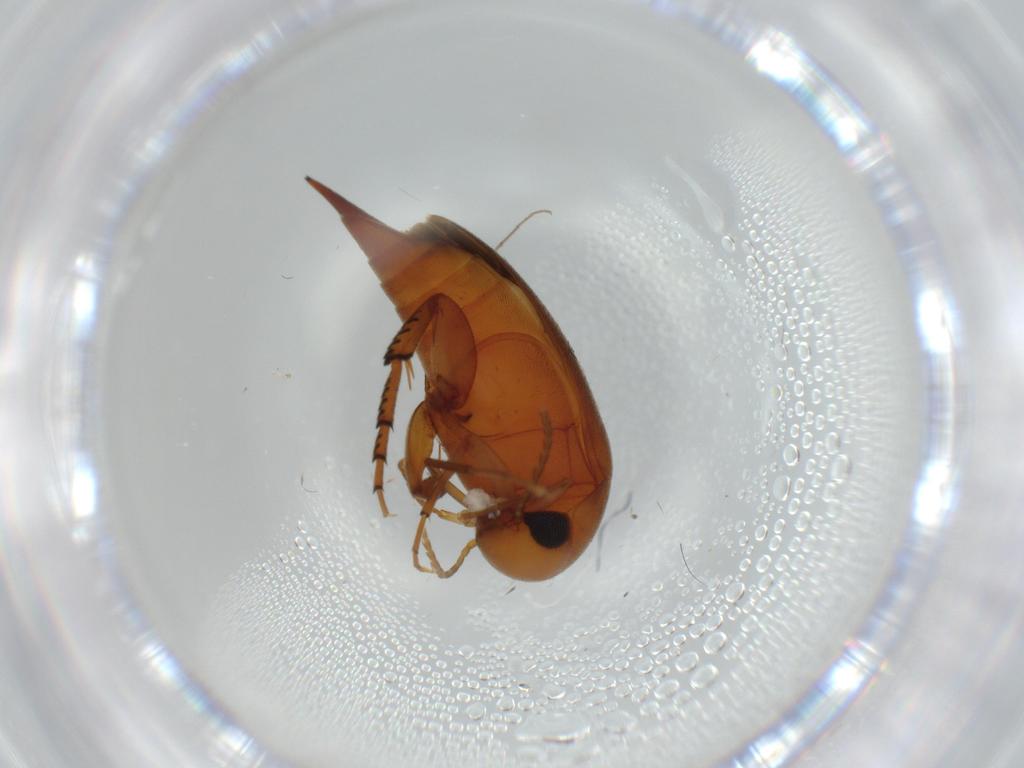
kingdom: Animalia
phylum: Arthropoda
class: Insecta
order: Coleoptera
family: Mordellidae
